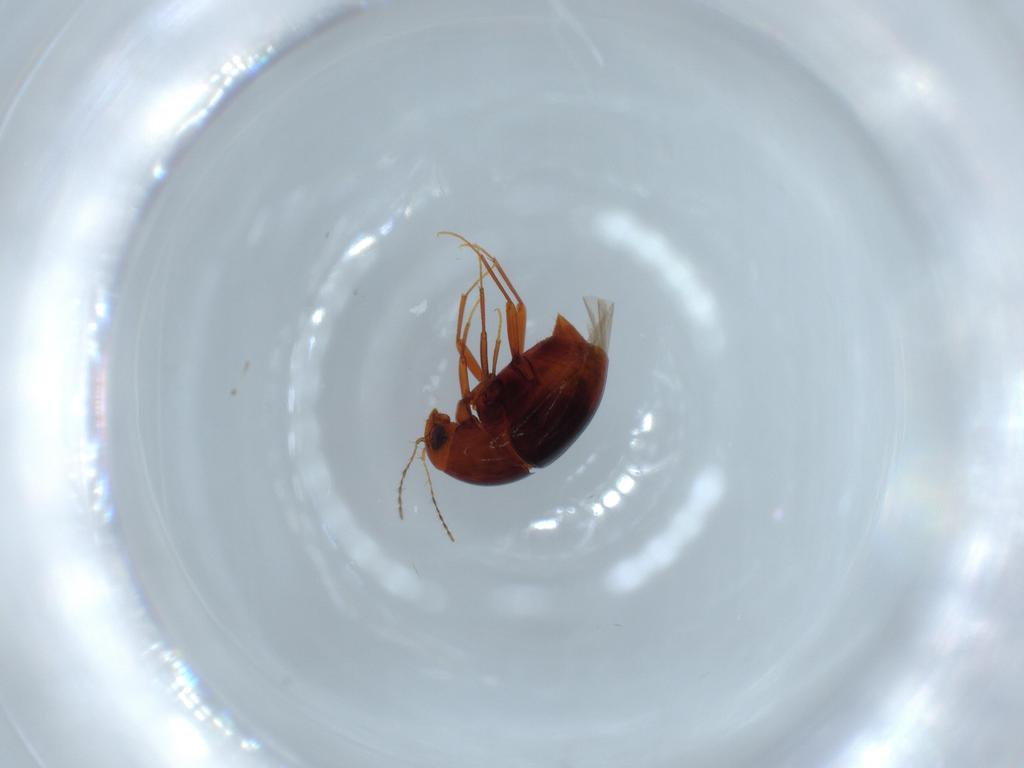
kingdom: Animalia
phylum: Arthropoda
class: Insecta
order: Coleoptera
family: Staphylinidae
